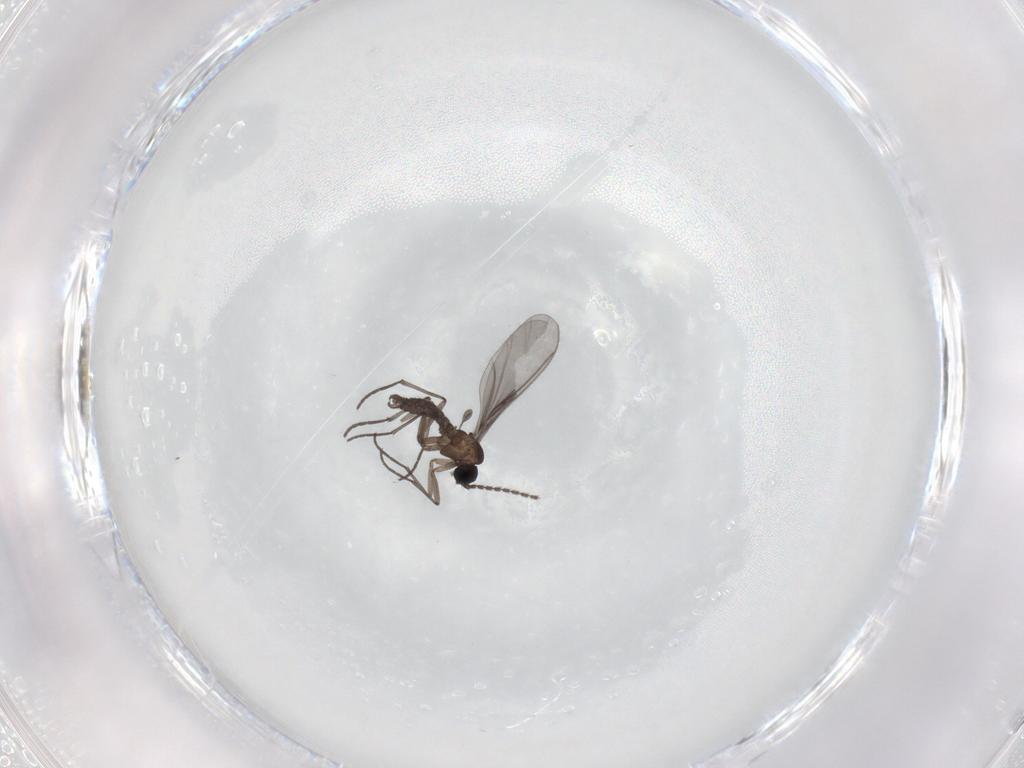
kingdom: Animalia
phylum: Arthropoda
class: Insecta
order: Diptera
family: Sciaridae
